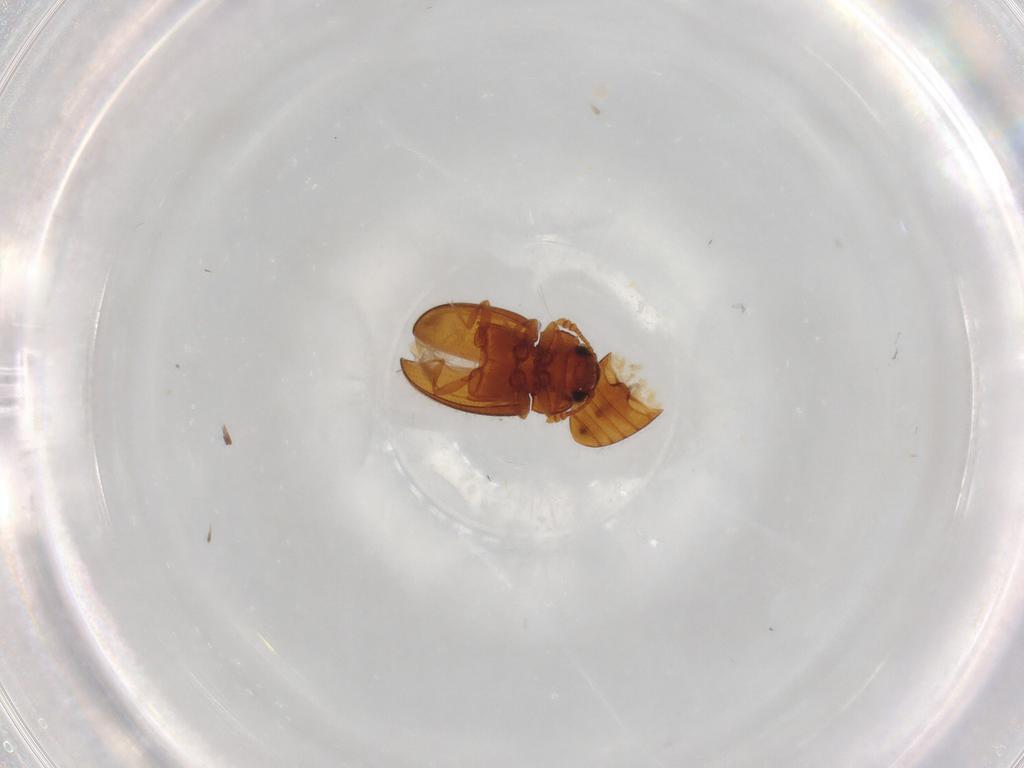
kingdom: Animalia
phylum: Arthropoda
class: Insecta
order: Coleoptera
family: Erotylidae
